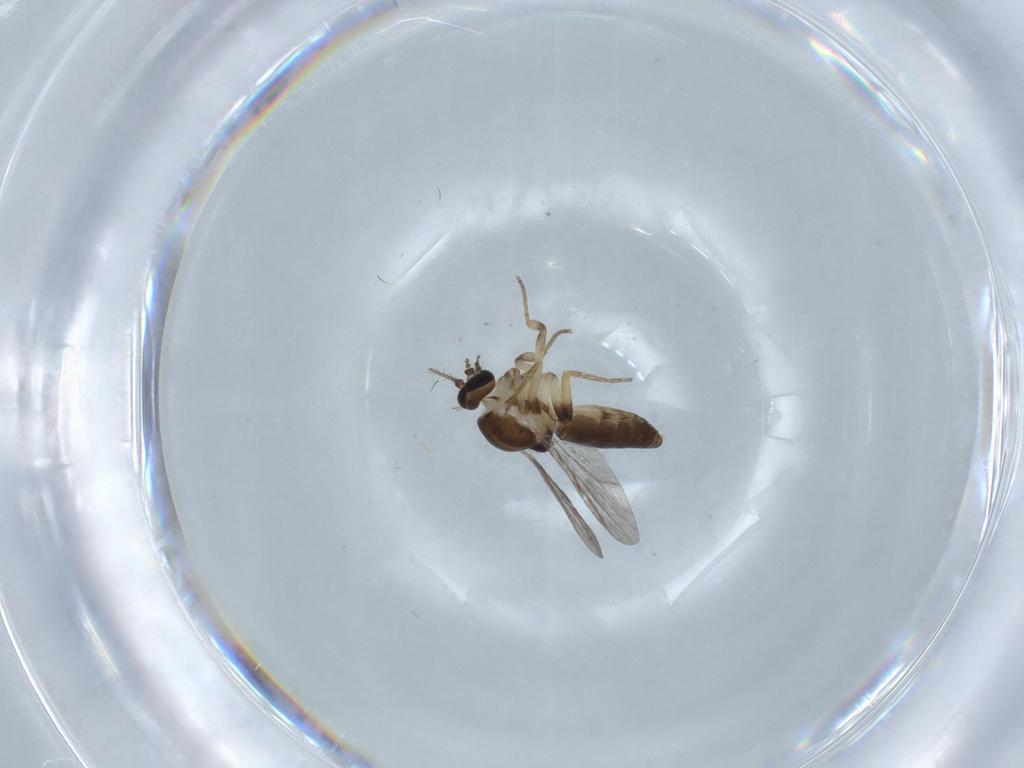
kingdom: Animalia
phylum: Arthropoda
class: Insecta
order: Diptera
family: Ceratopogonidae
